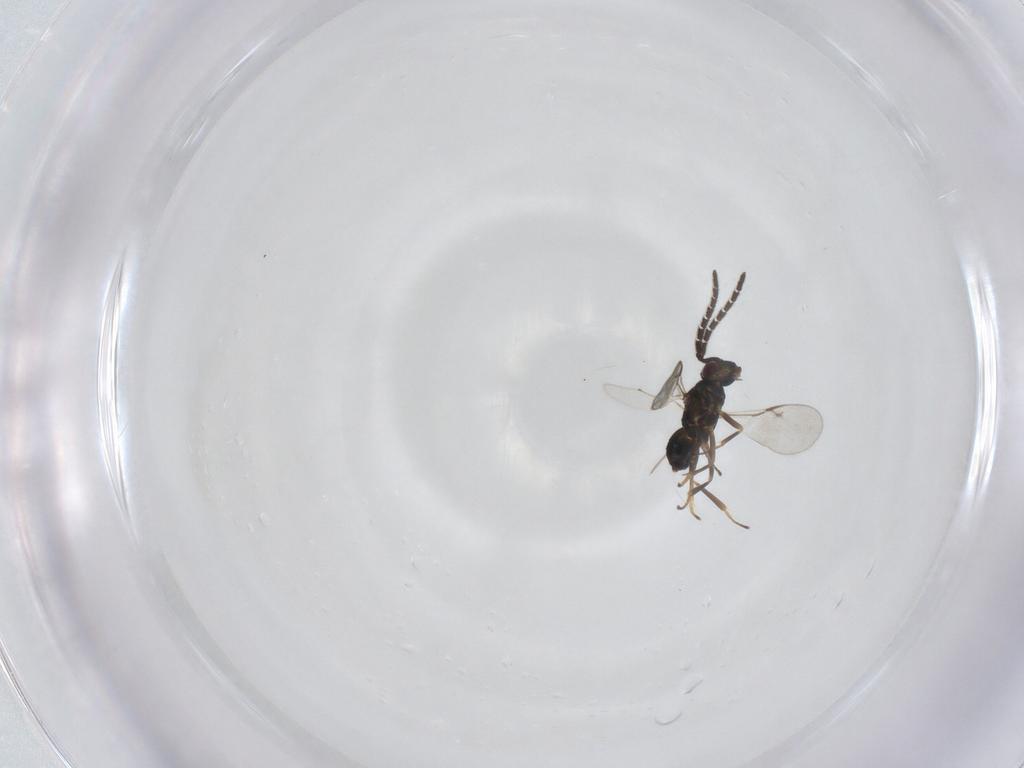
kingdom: Animalia
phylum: Arthropoda
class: Insecta
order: Hymenoptera
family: Encyrtidae
